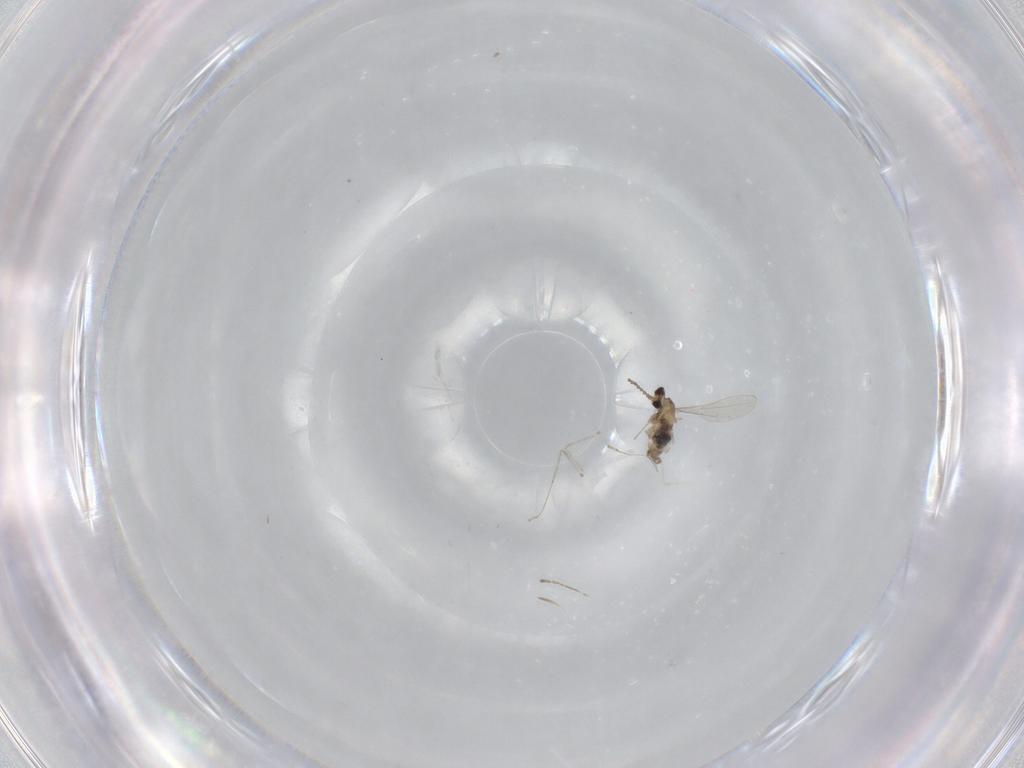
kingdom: Animalia
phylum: Arthropoda
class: Insecta
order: Diptera
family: Cecidomyiidae
